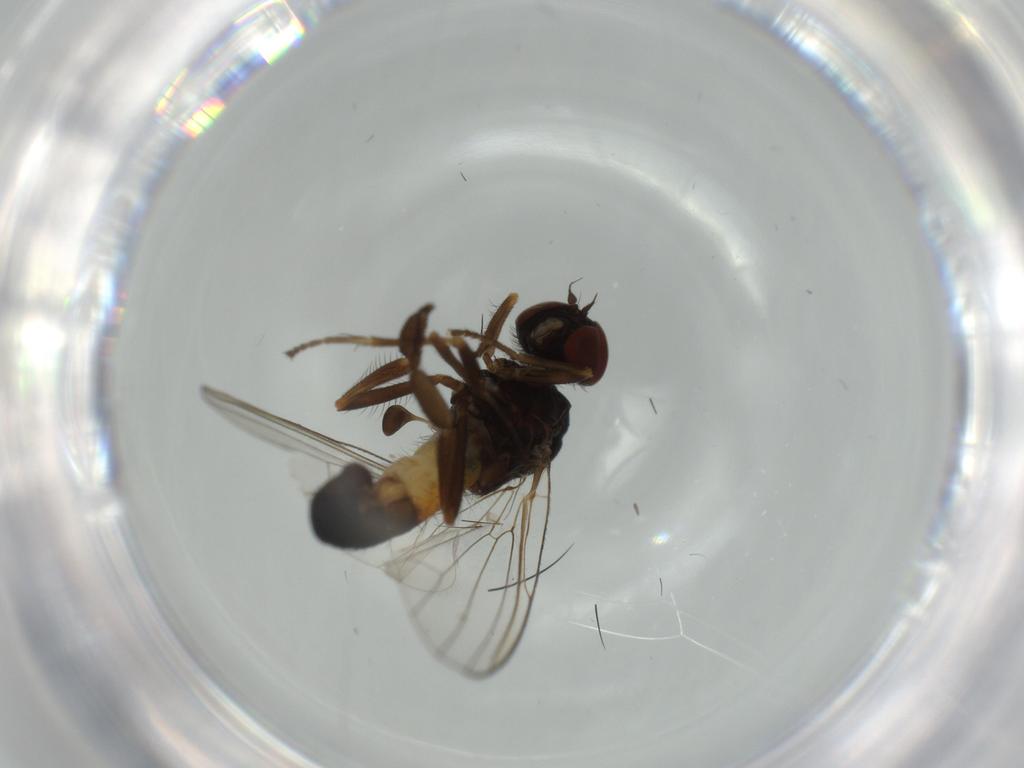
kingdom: Animalia
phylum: Arthropoda
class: Insecta
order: Diptera
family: Platypezidae
